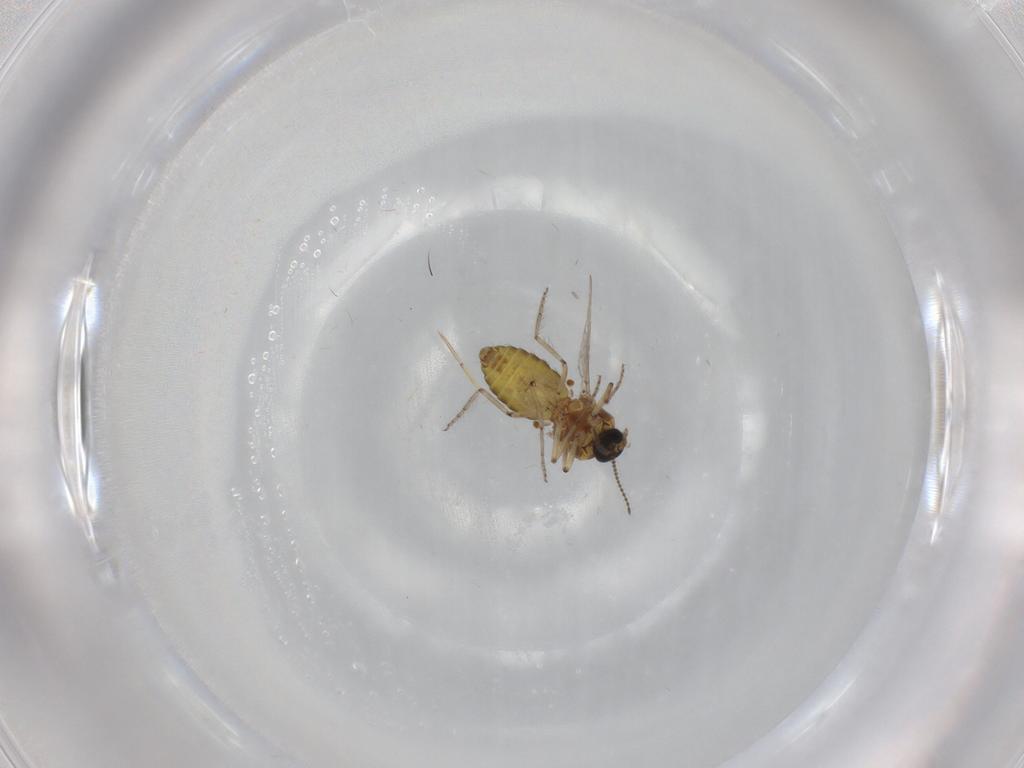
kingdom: Animalia
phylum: Arthropoda
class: Insecta
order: Diptera
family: Ceratopogonidae
